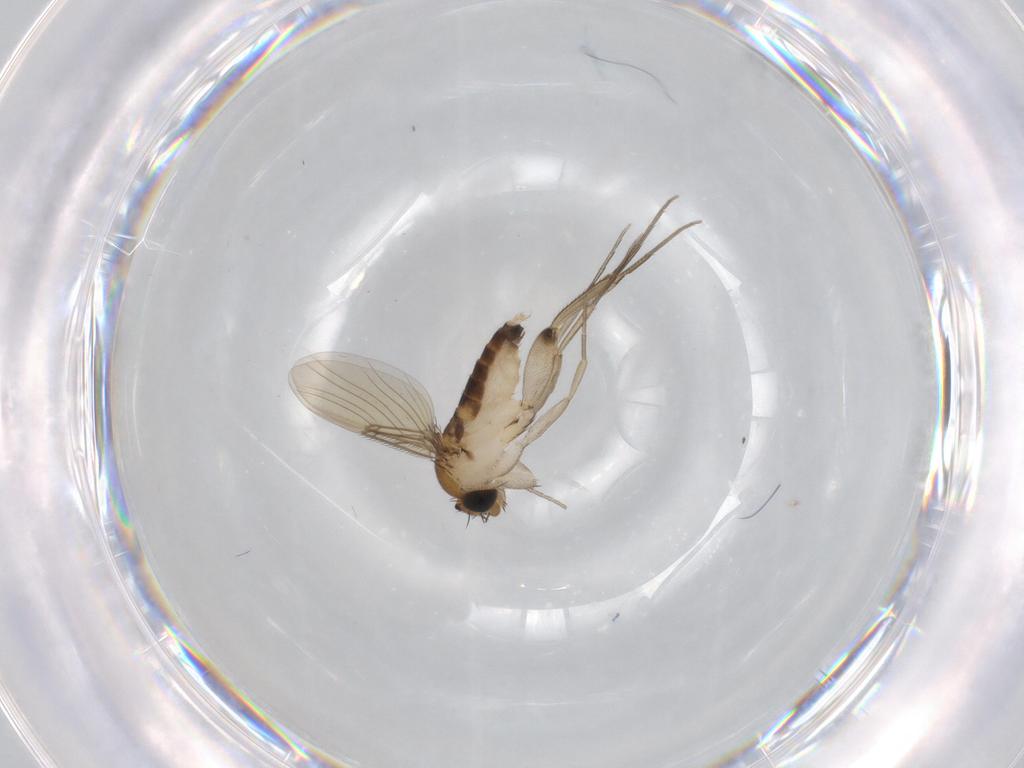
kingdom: Animalia
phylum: Arthropoda
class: Insecta
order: Diptera
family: Phoridae
